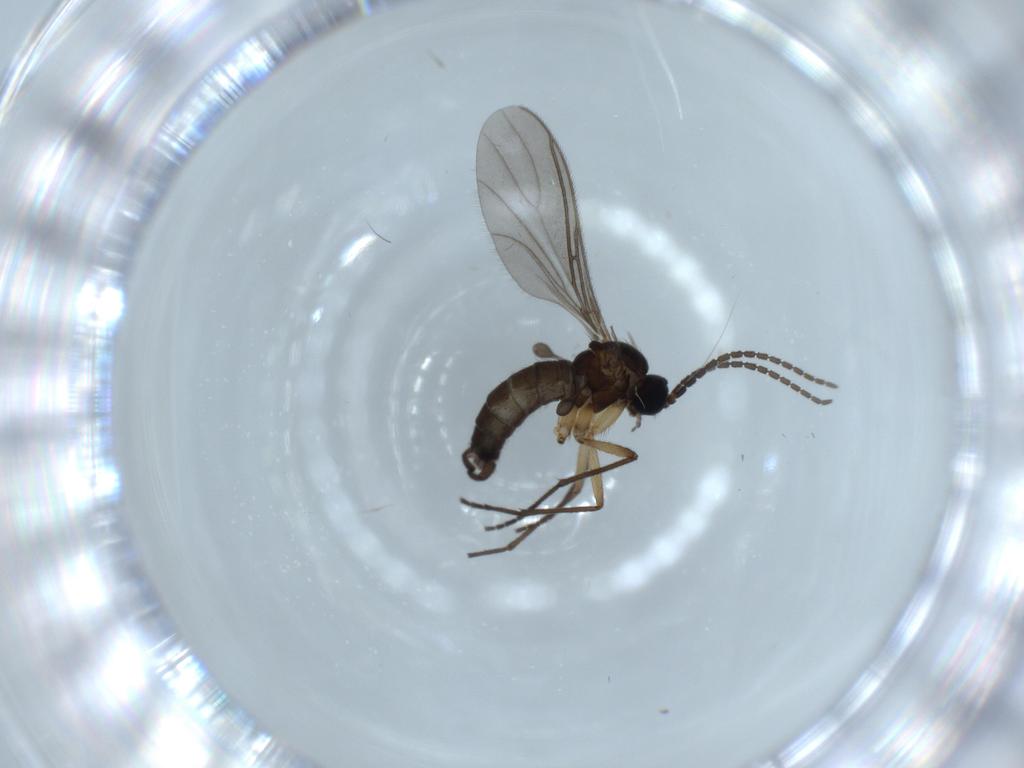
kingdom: Animalia
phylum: Arthropoda
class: Insecta
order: Diptera
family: Sciaridae
